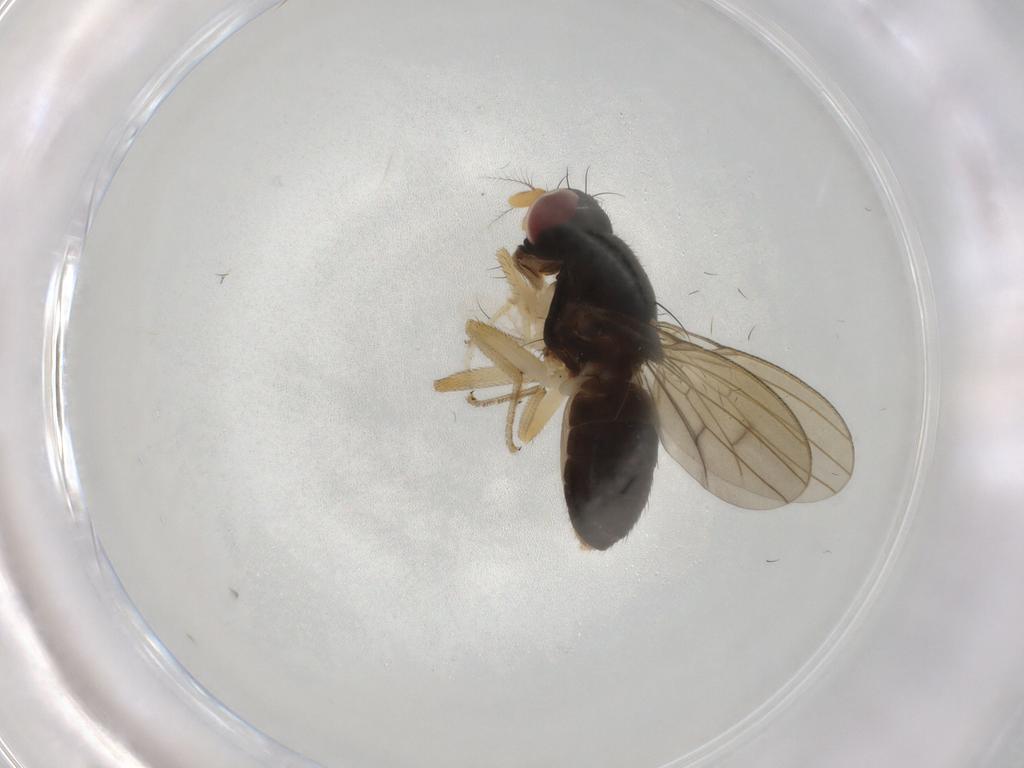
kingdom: Animalia
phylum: Arthropoda
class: Insecta
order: Diptera
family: Syrphidae
